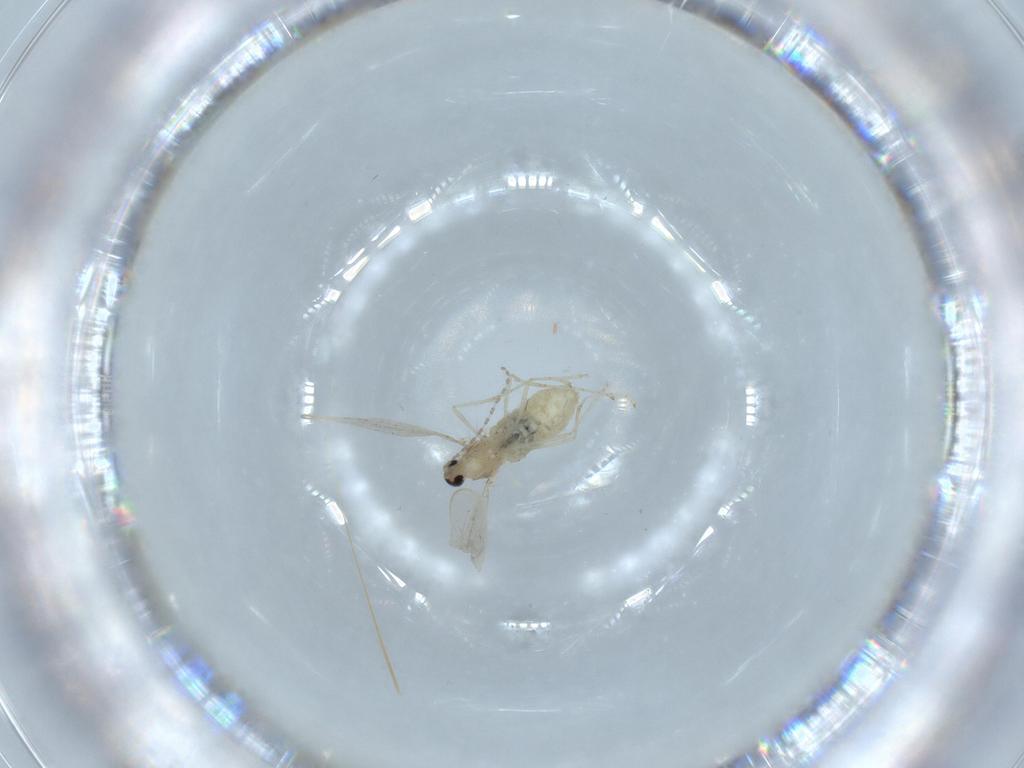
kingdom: Animalia
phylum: Arthropoda
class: Insecta
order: Diptera
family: Cecidomyiidae
